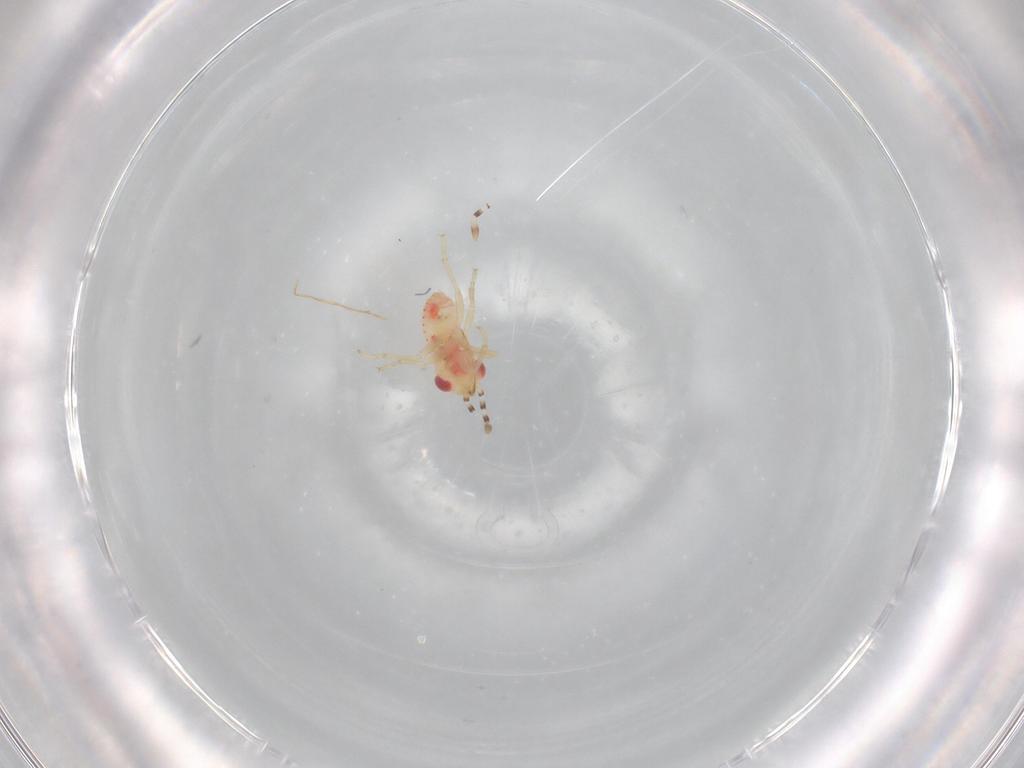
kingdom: Animalia
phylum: Arthropoda
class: Insecta
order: Hemiptera
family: Geocoridae
